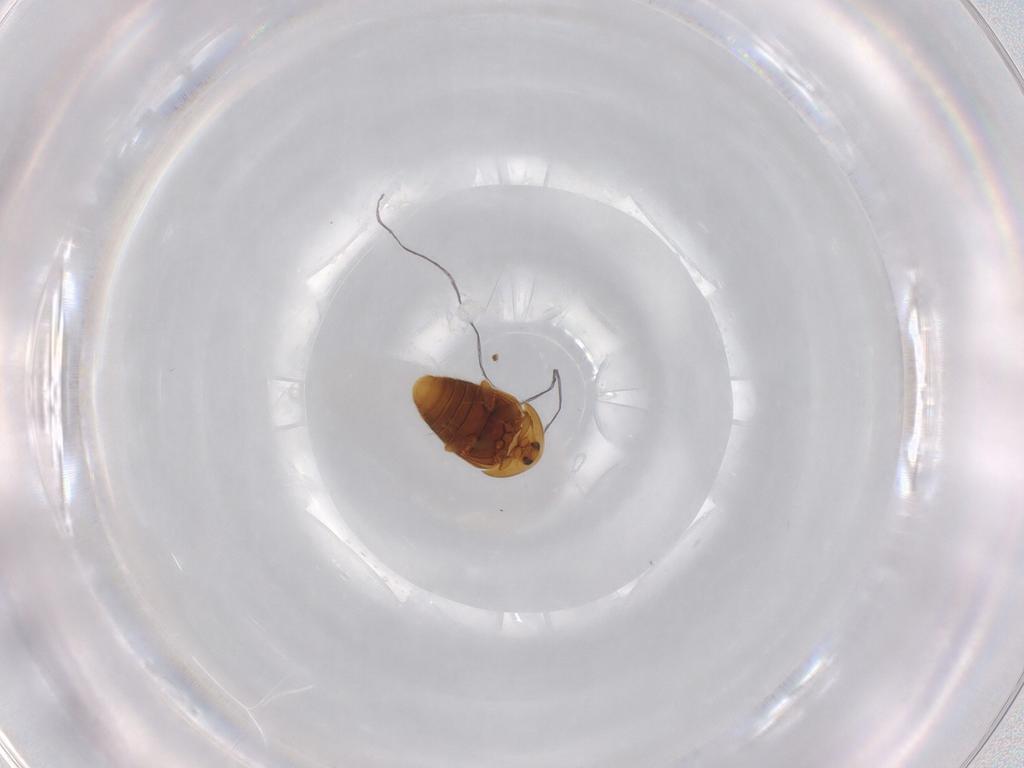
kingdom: Animalia
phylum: Arthropoda
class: Insecta
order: Coleoptera
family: Corylophidae
